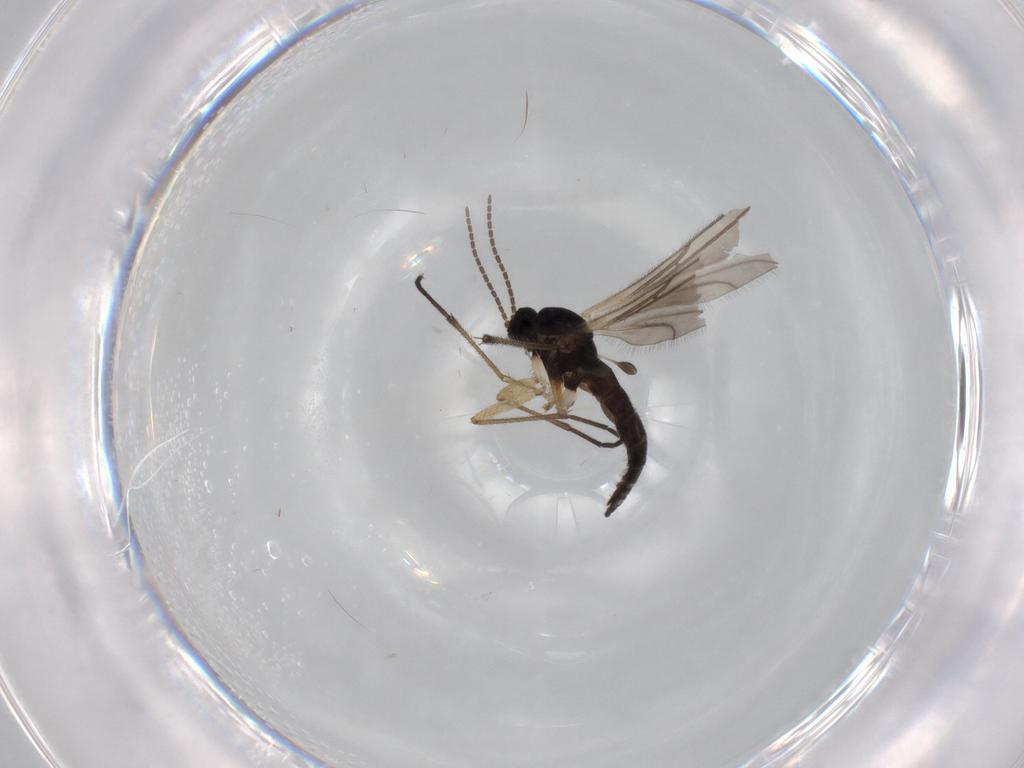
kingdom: Animalia
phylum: Arthropoda
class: Insecta
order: Diptera
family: Sciaridae
